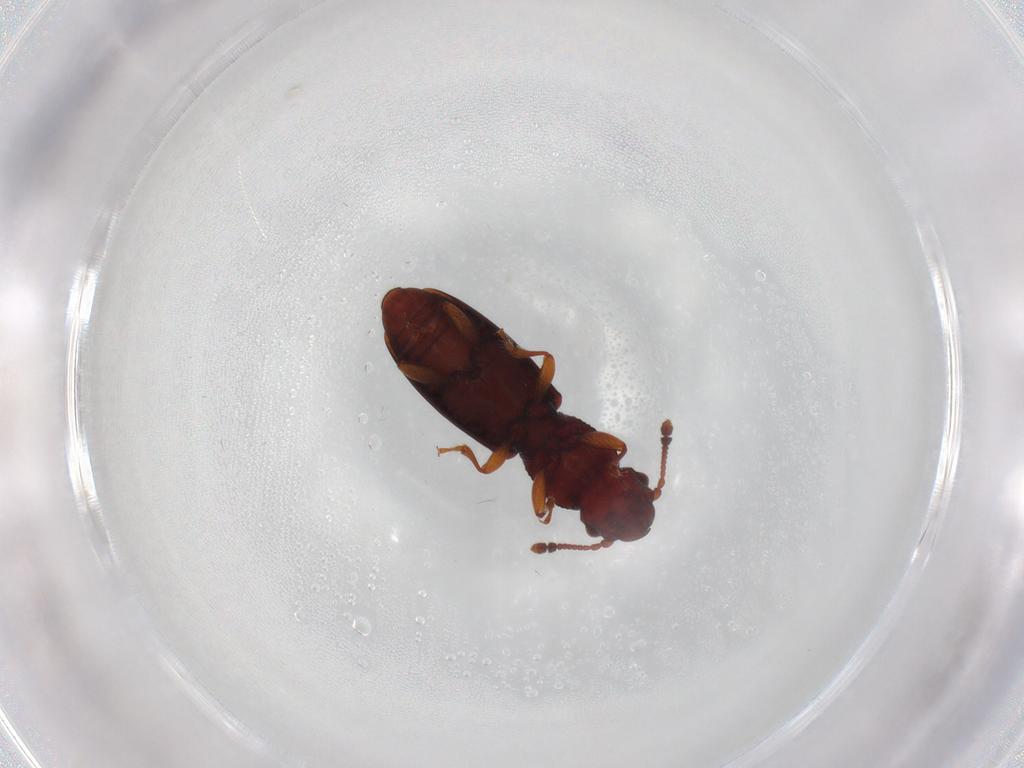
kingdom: Animalia
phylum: Arthropoda
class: Insecta
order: Coleoptera
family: Monotomidae
